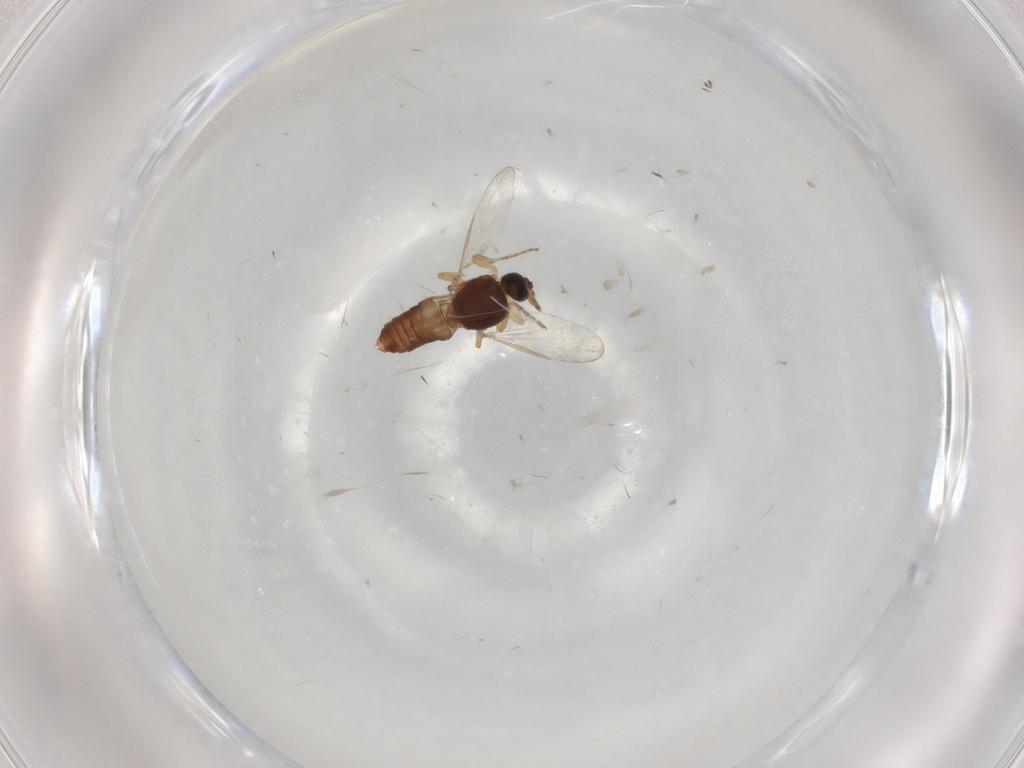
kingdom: Animalia
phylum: Arthropoda
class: Insecta
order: Diptera
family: Ceratopogonidae
